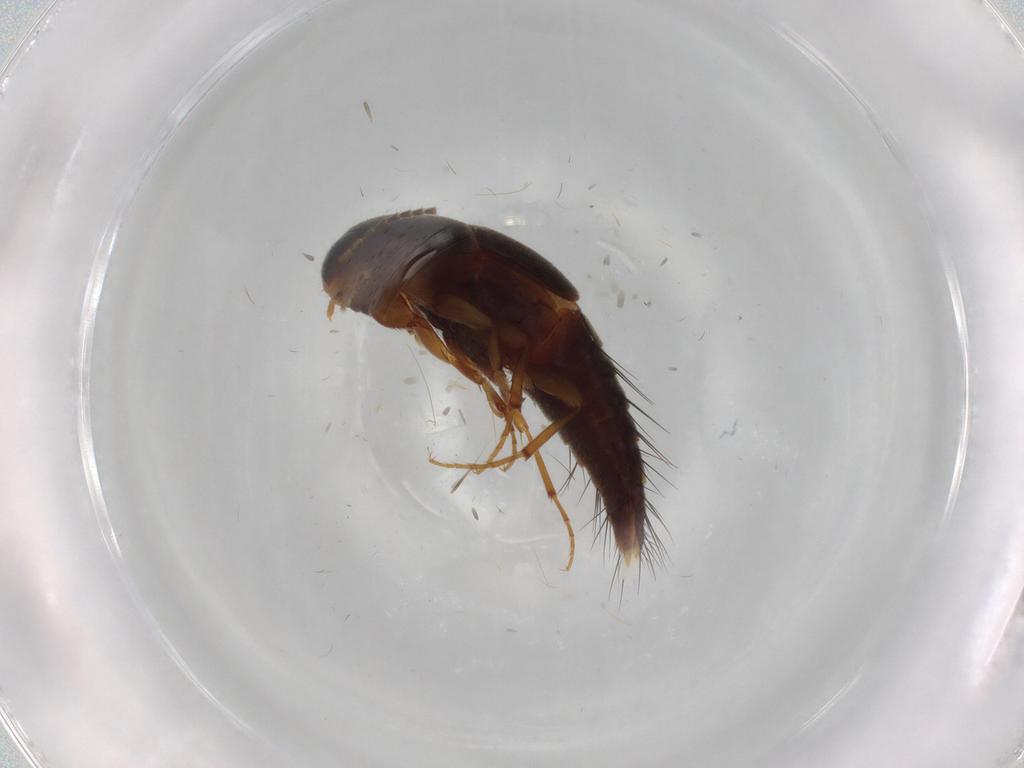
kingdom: Animalia
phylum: Arthropoda
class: Insecta
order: Coleoptera
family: Staphylinidae
